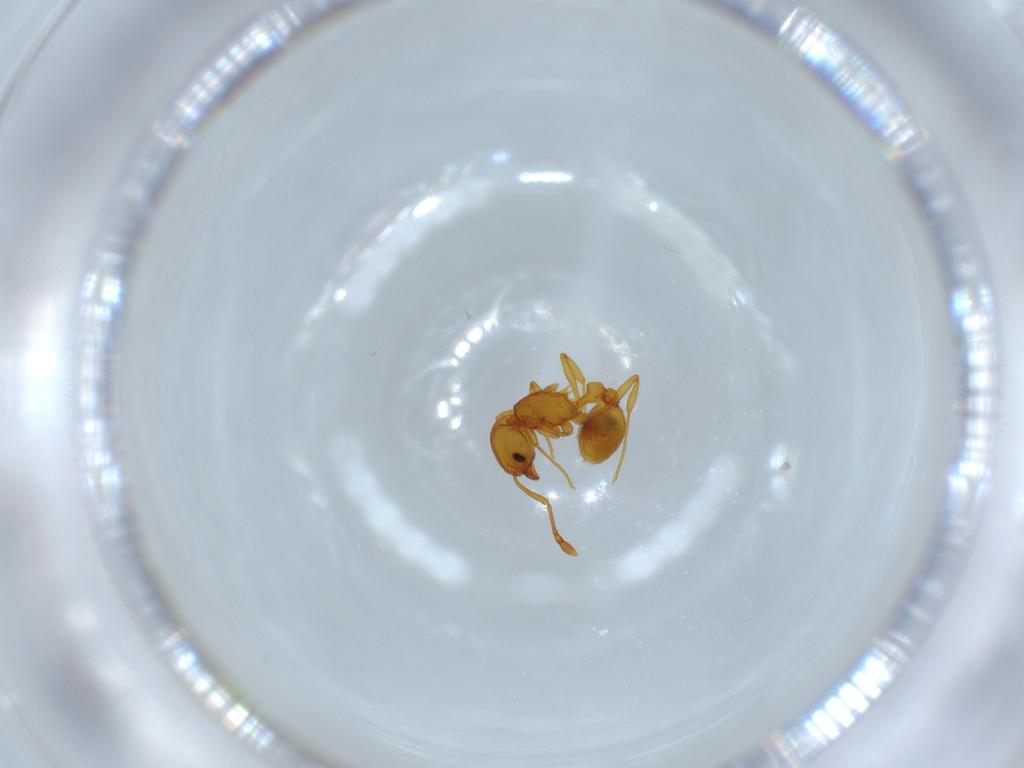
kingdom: Animalia
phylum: Arthropoda
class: Insecta
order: Hymenoptera
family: Formicidae
